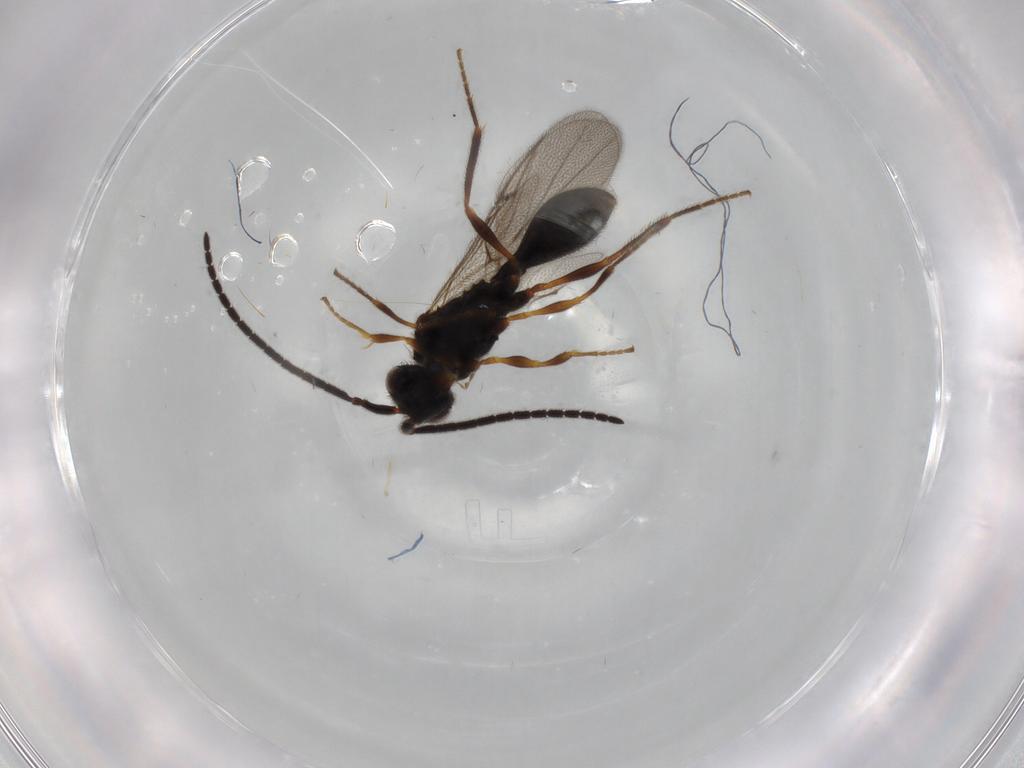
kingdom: Animalia
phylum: Arthropoda
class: Insecta
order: Hymenoptera
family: Diapriidae
